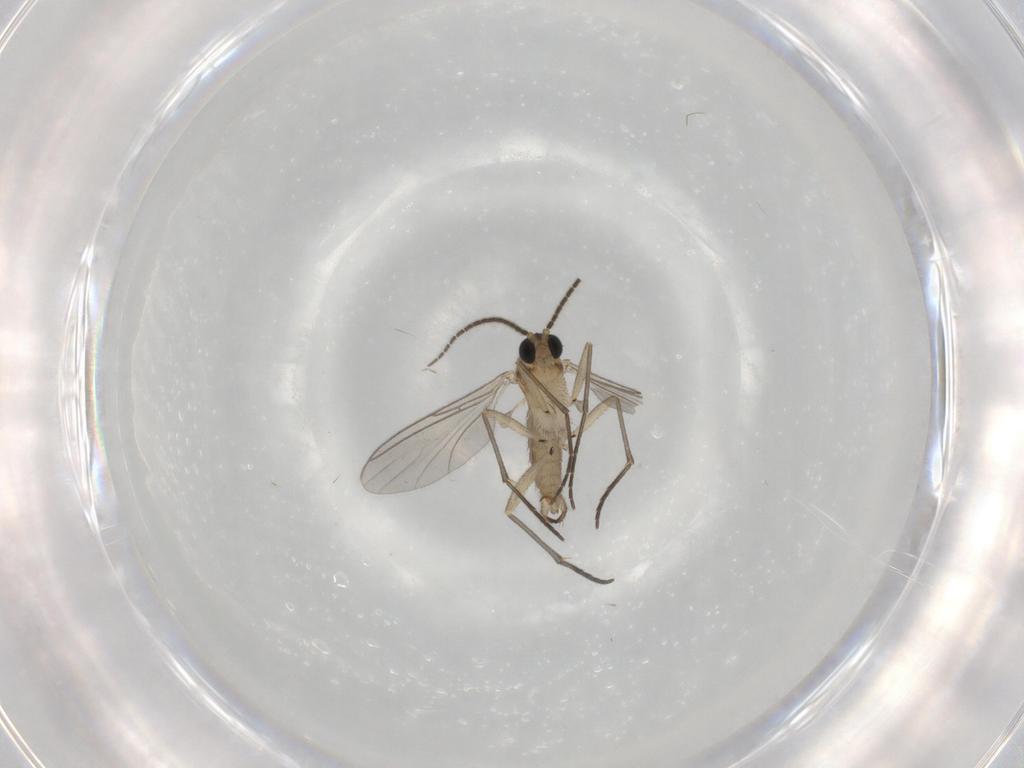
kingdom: Animalia
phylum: Arthropoda
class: Insecta
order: Diptera
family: Sciaridae
